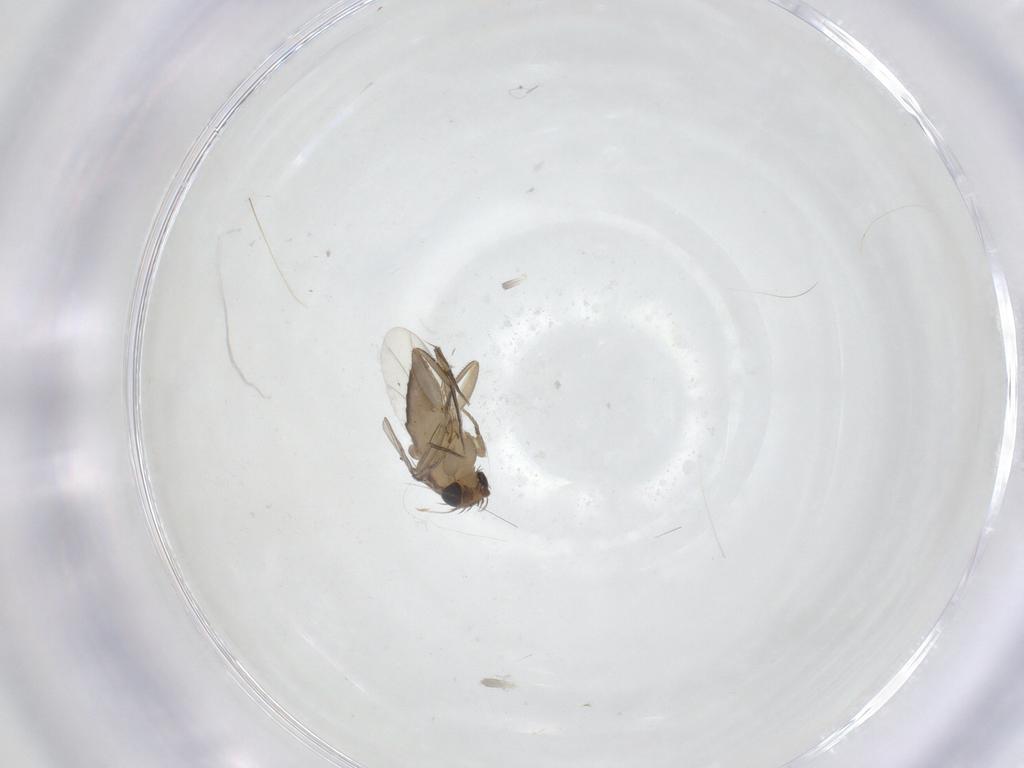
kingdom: Animalia
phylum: Arthropoda
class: Insecta
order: Diptera
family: Phoridae
